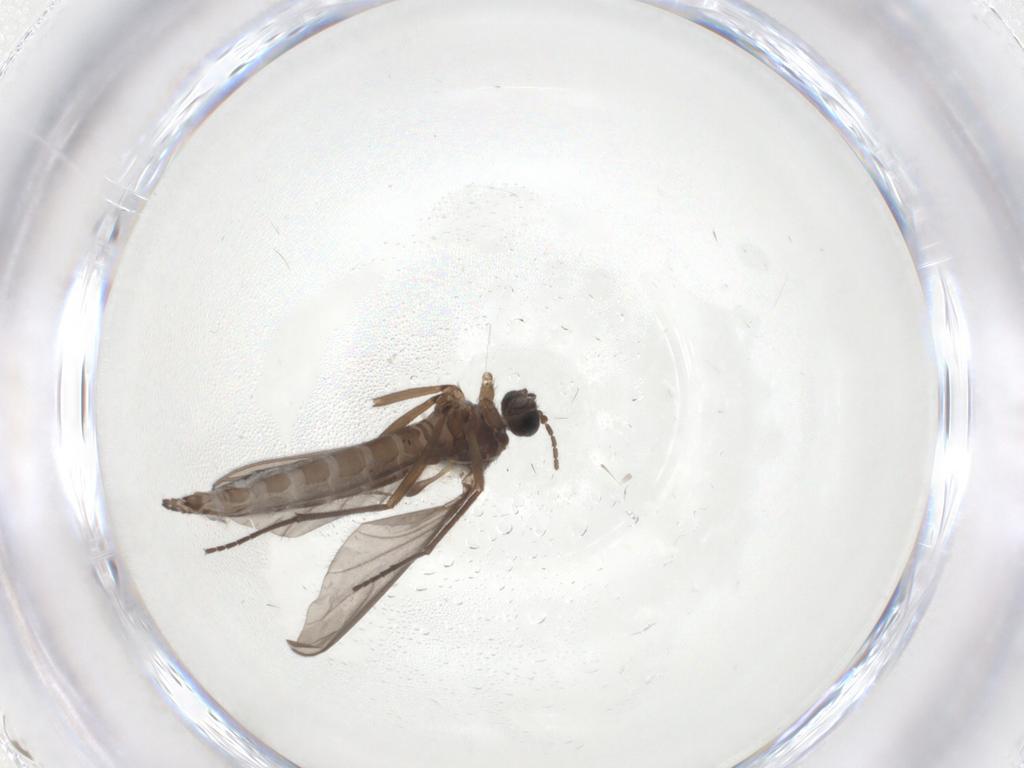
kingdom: Animalia
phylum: Arthropoda
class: Insecta
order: Diptera
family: Sciaridae
